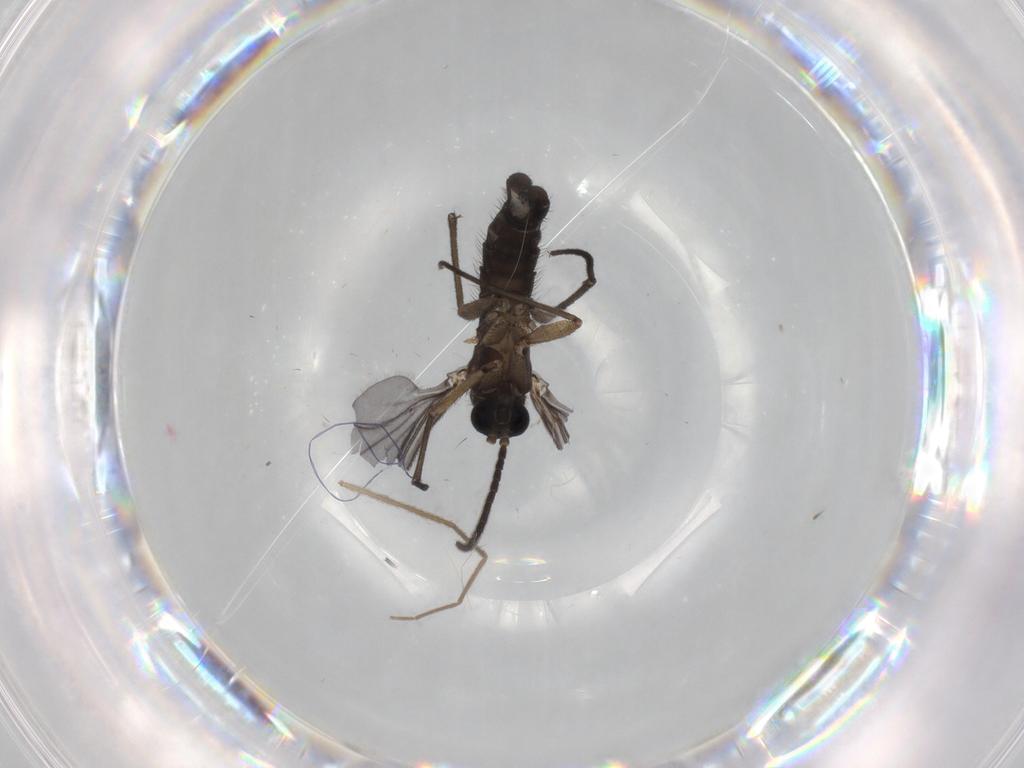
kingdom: Animalia
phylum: Arthropoda
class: Insecta
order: Diptera
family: Sciaridae
